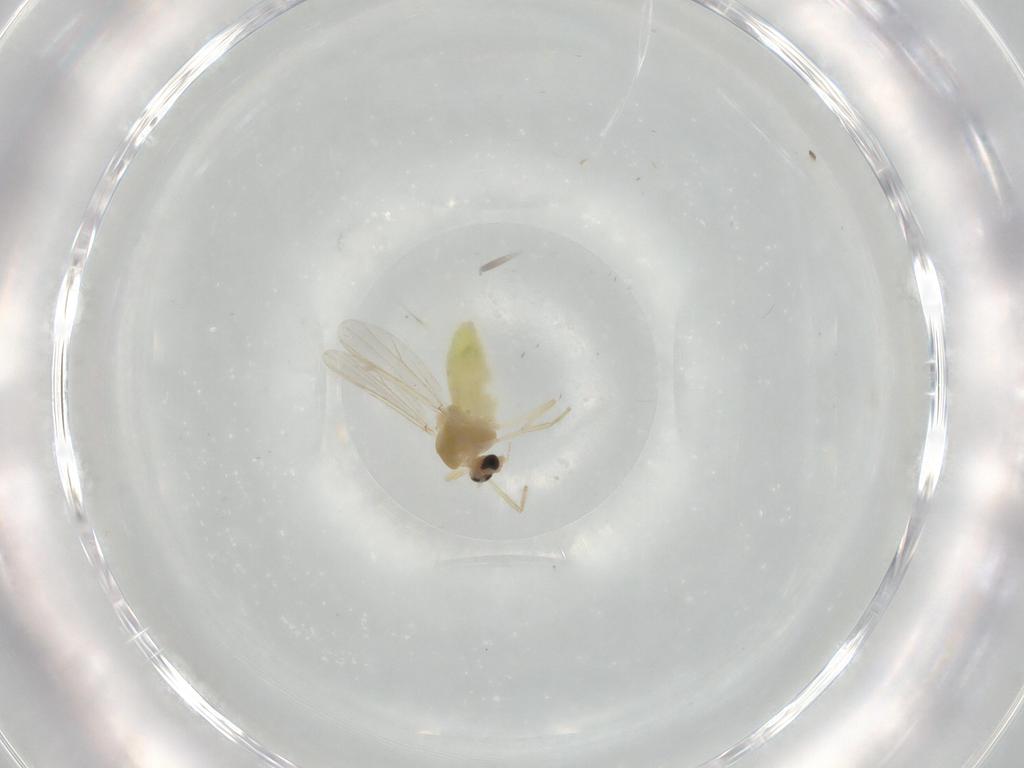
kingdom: Animalia
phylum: Arthropoda
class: Insecta
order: Diptera
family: Chironomidae
